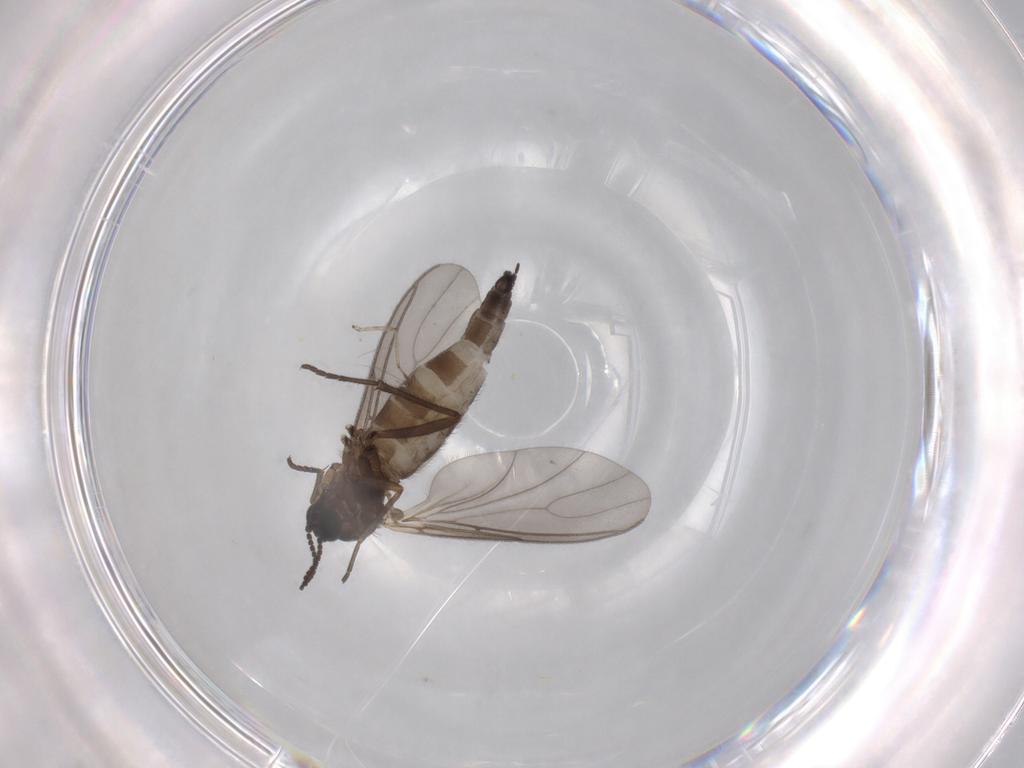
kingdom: Animalia
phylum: Arthropoda
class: Insecta
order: Diptera
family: Sciaridae
